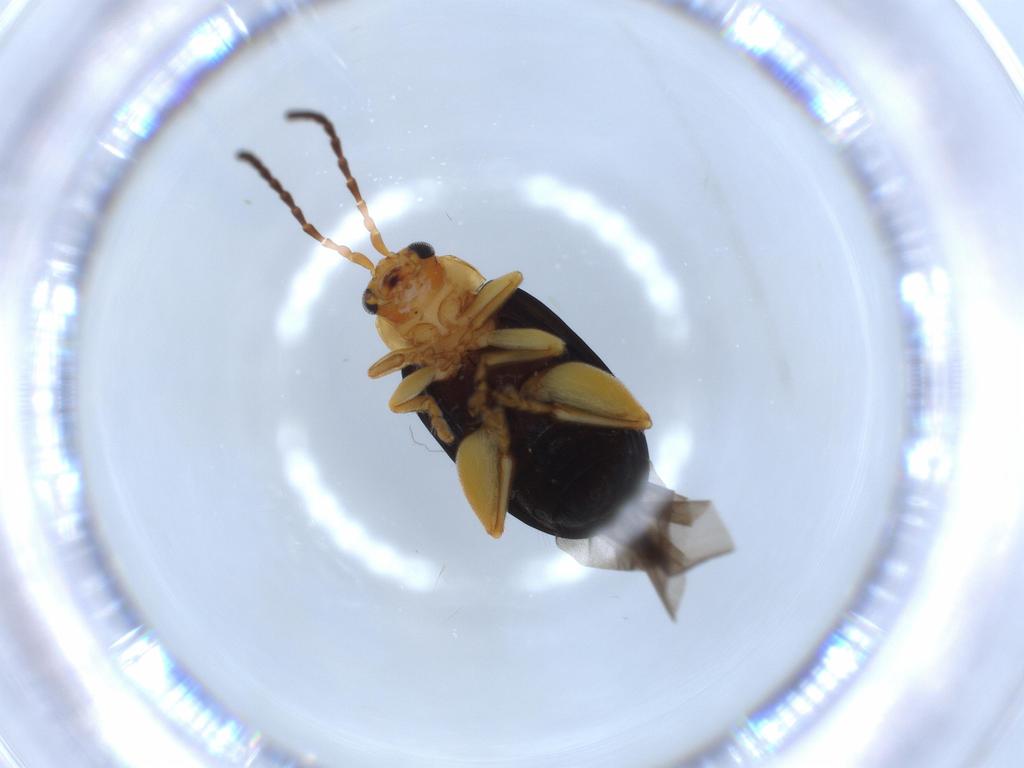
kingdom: Animalia
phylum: Arthropoda
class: Insecta
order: Coleoptera
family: Chrysomelidae
